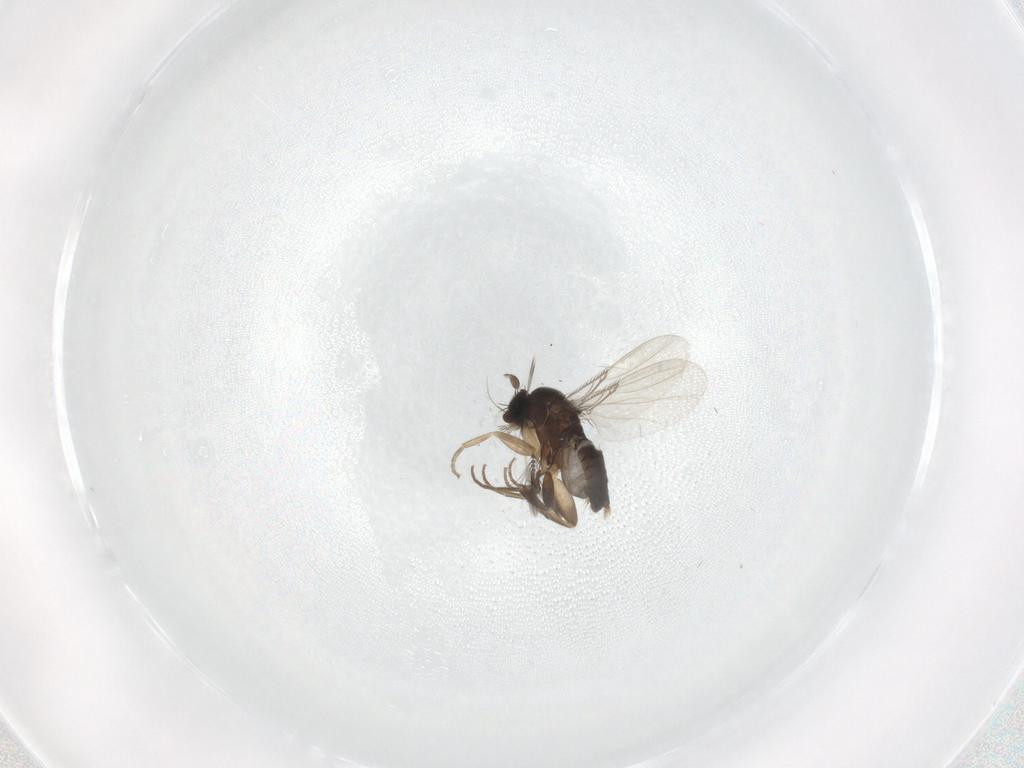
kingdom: Animalia
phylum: Arthropoda
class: Insecta
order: Diptera
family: Ceratopogonidae
